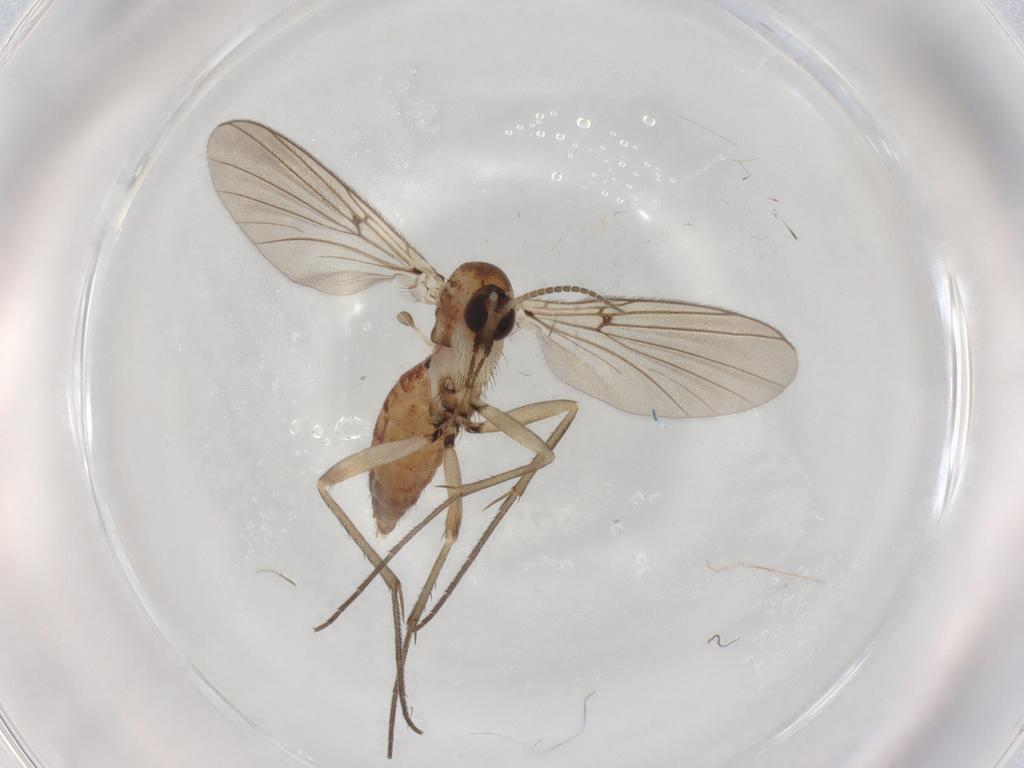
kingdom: Animalia
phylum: Arthropoda
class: Insecta
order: Diptera
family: Mycetophilidae
